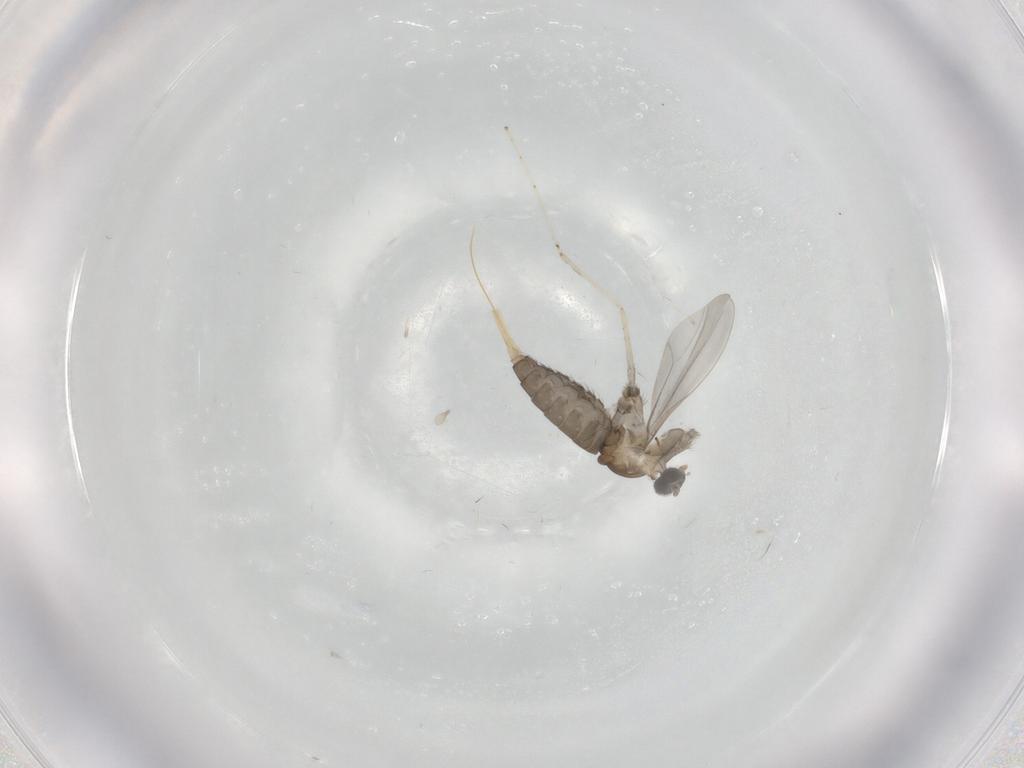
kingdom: Animalia
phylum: Arthropoda
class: Insecta
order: Diptera
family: Cecidomyiidae
